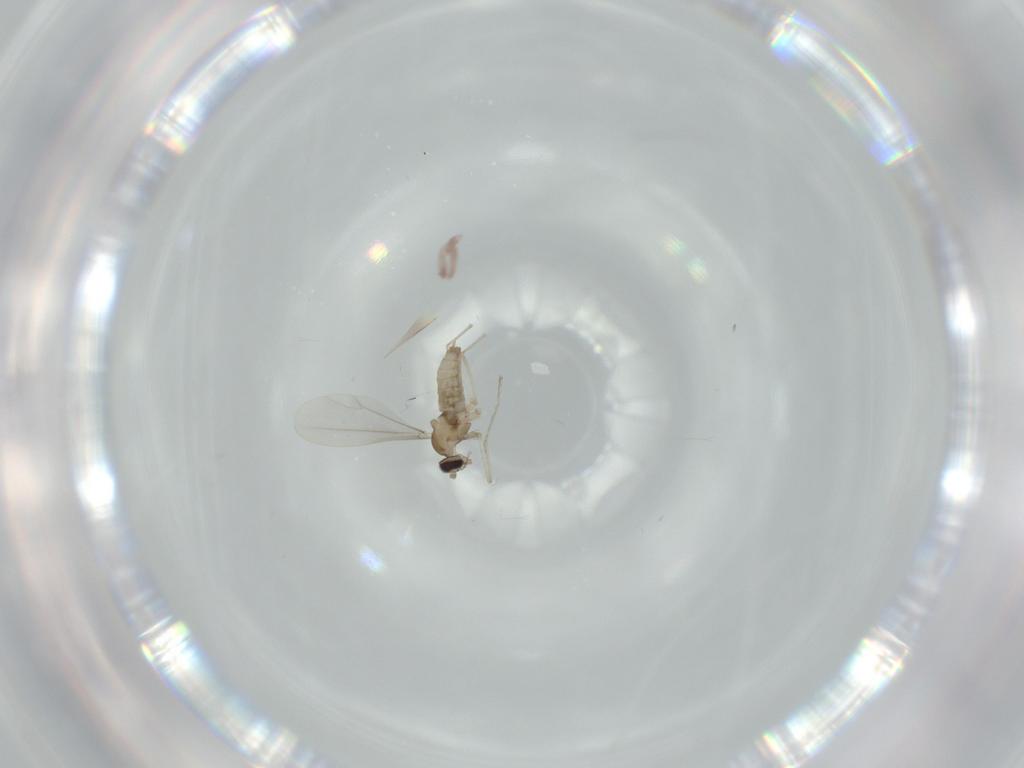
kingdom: Animalia
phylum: Arthropoda
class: Insecta
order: Diptera
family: Cecidomyiidae
